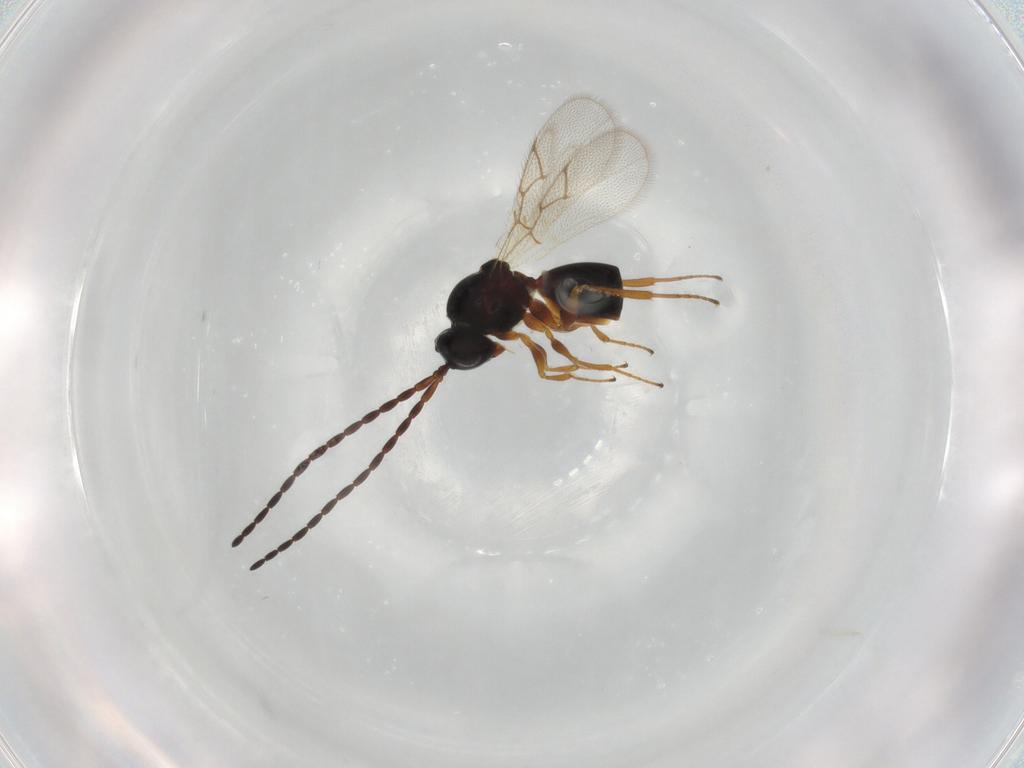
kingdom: Animalia
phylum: Arthropoda
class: Insecta
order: Hymenoptera
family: Figitidae
